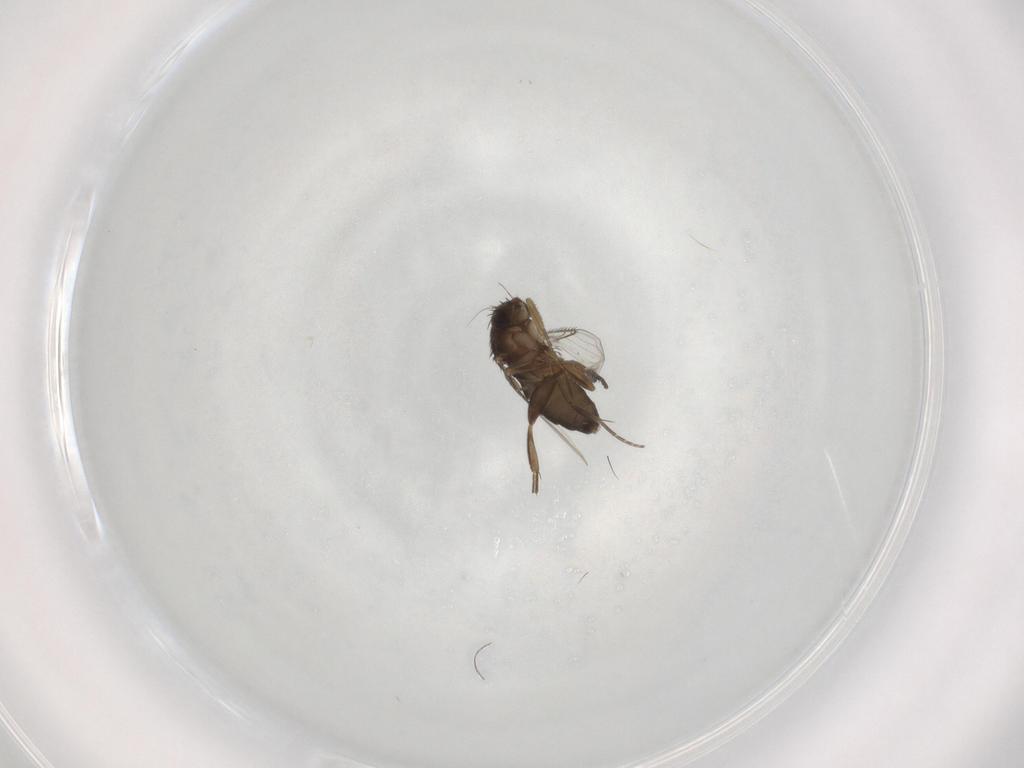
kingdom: Animalia
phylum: Arthropoda
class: Insecta
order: Diptera
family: Phoridae
